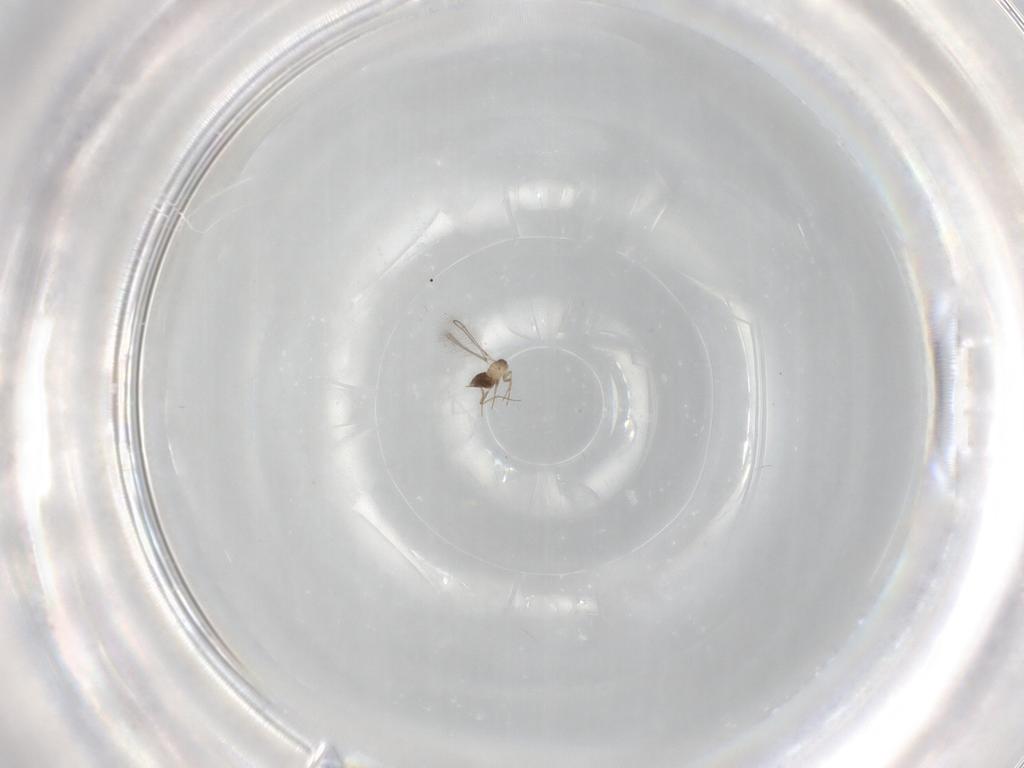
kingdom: Animalia
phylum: Arthropoda
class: Insecta
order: Hymenoptera
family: Mymaridae
